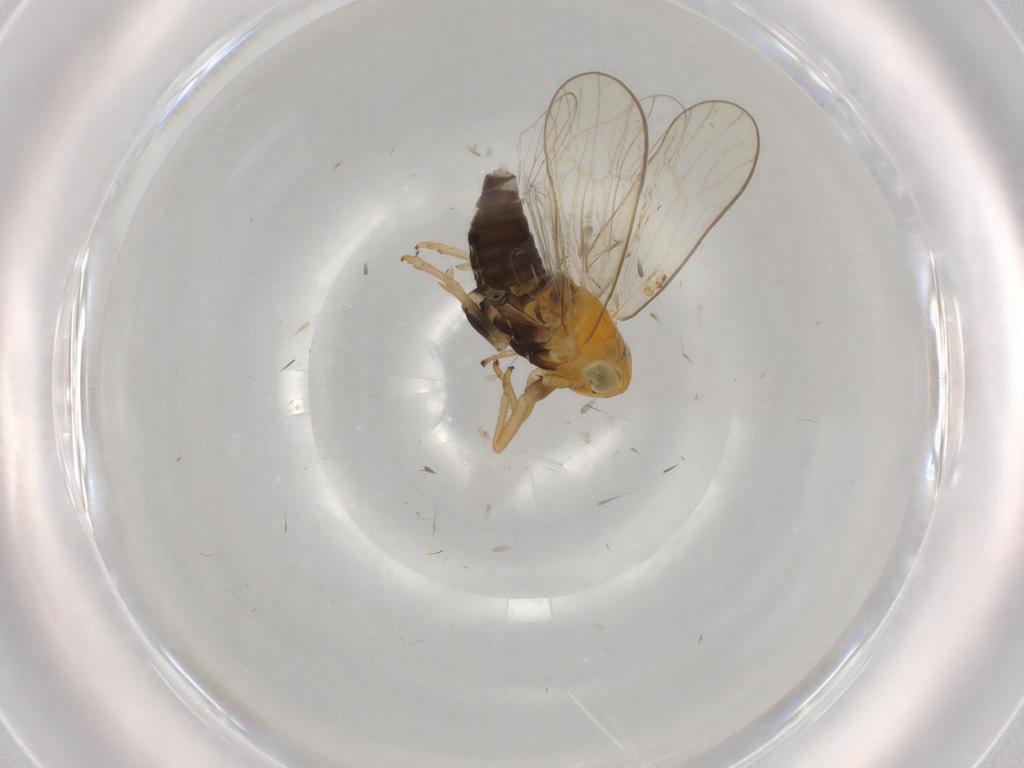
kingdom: Animalia
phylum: Arthropoda
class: Insecta
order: Hemiptera
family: Delphacidae
